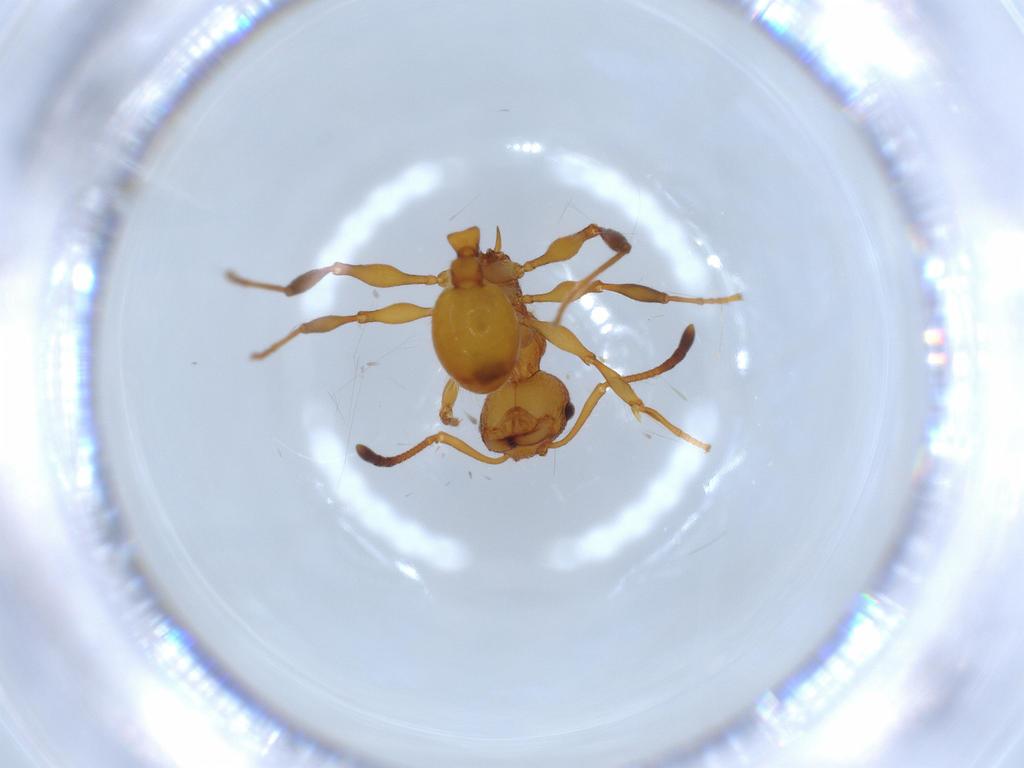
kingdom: Animalia
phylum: Arthropoda
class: Insecta
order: Hymenoptera
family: Formicidae
